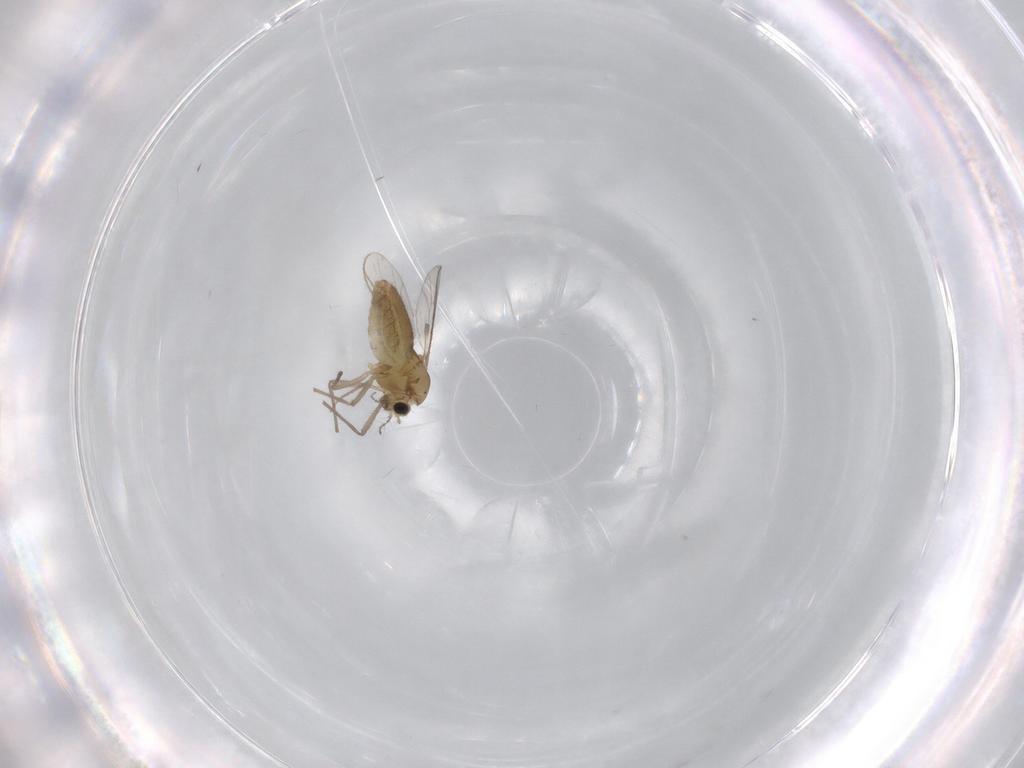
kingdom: Animalia
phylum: Arthropoda
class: Insecta
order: Diptera
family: Chironomidae
